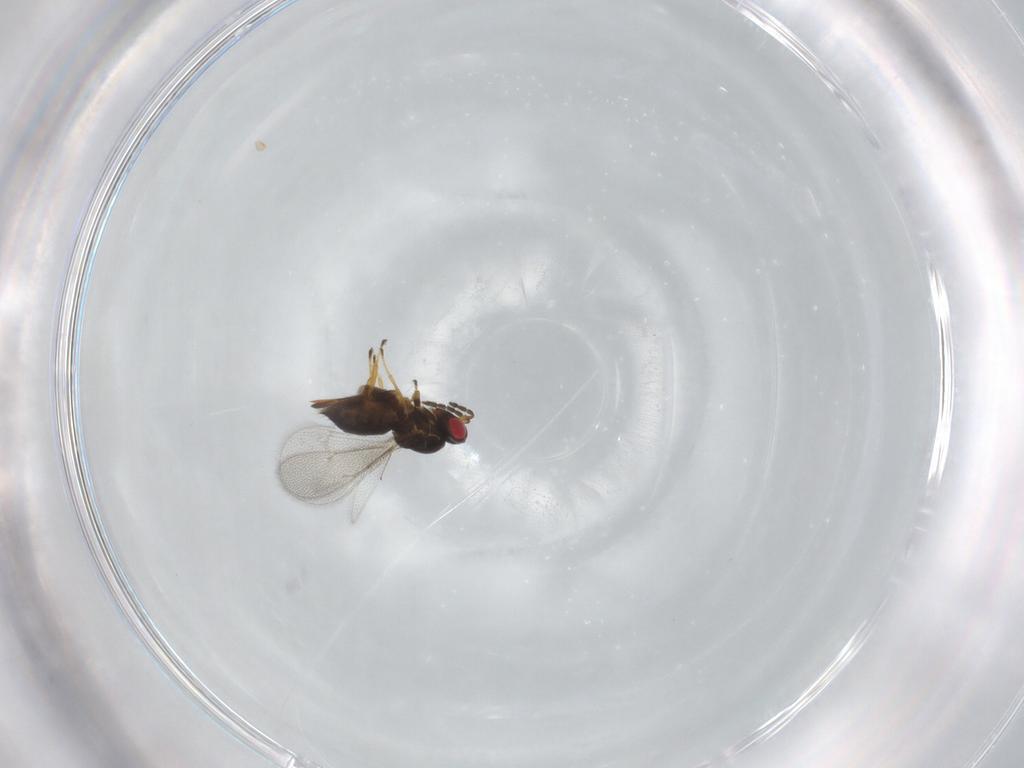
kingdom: Animalia
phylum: Arthropoda
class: Insecta
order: Hymenoptera
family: Eulophidae
